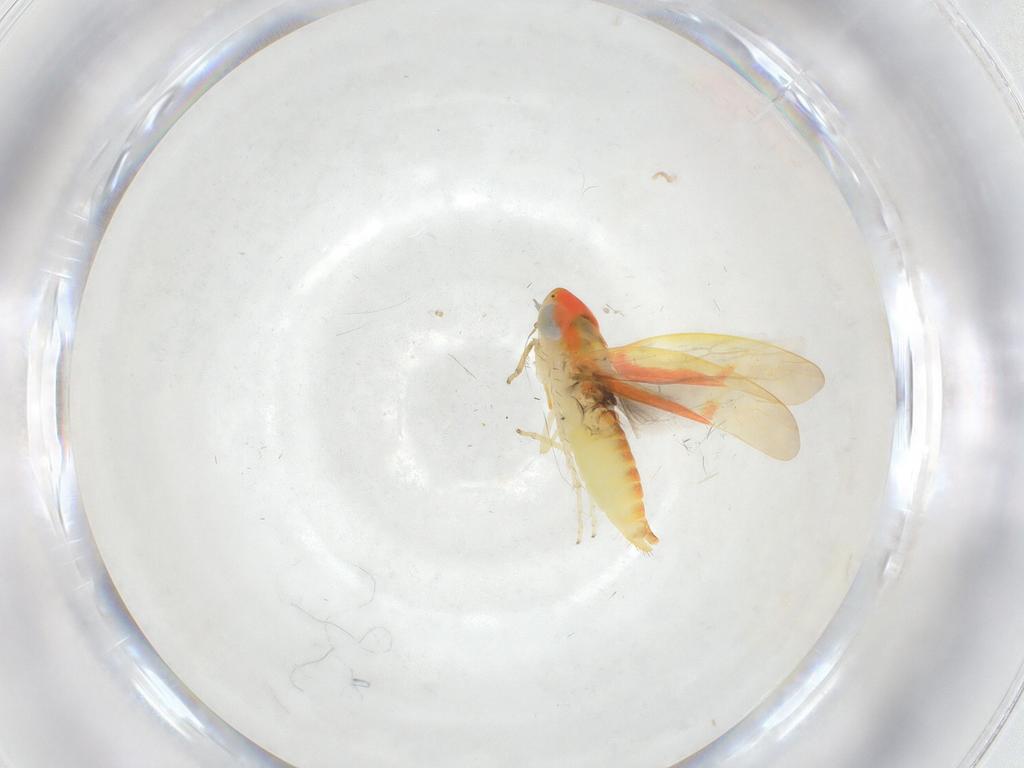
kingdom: Animalia
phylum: Arthropoda
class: Insecta
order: Hemiptera
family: Cicadellidae
